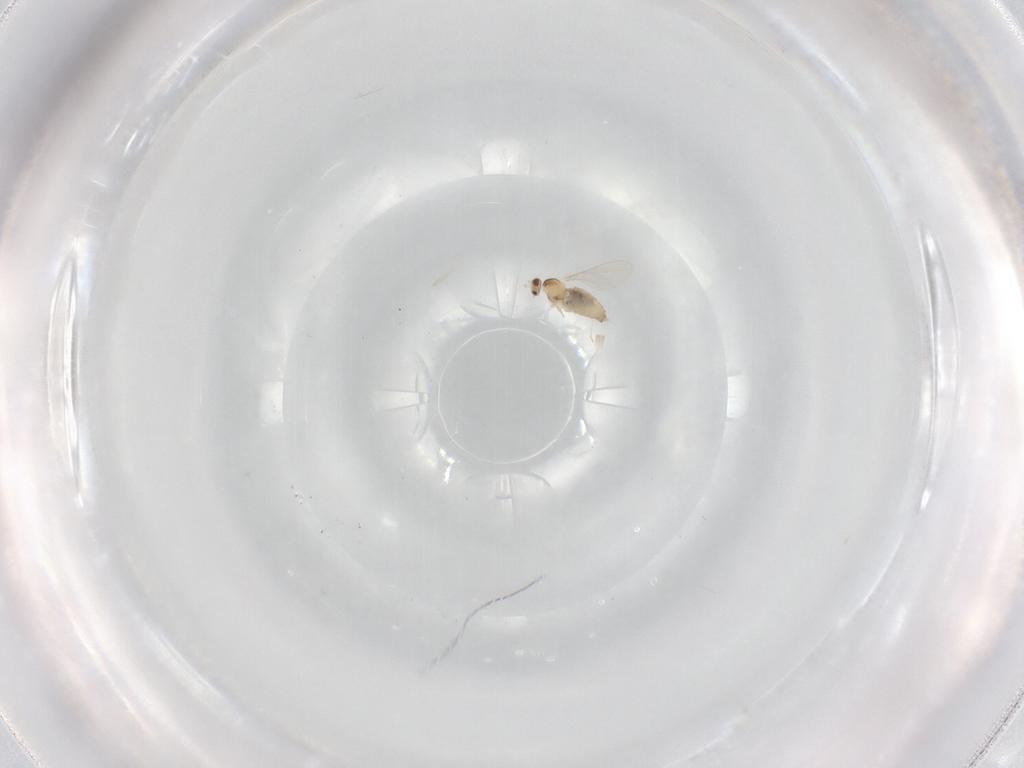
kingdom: Animalia
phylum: Arthropoda
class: Insecta
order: Diptera
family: Cecidomyiidae
